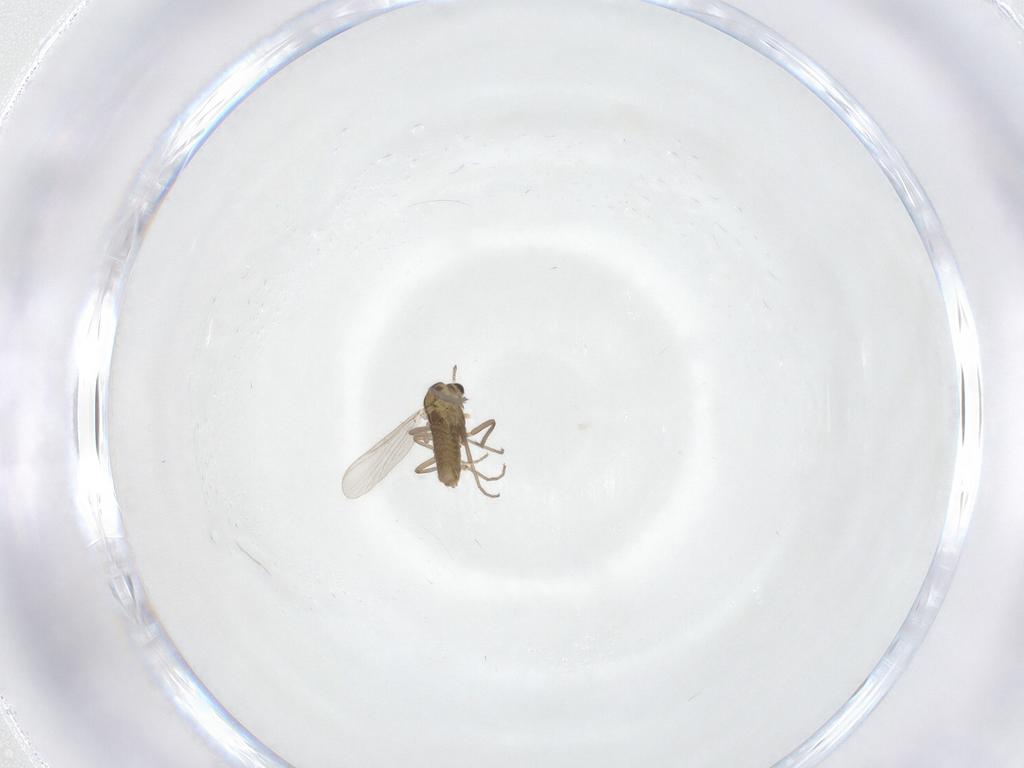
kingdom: Animalia
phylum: Arthropoda
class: Insecta
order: Diptera
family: Chironomidae
